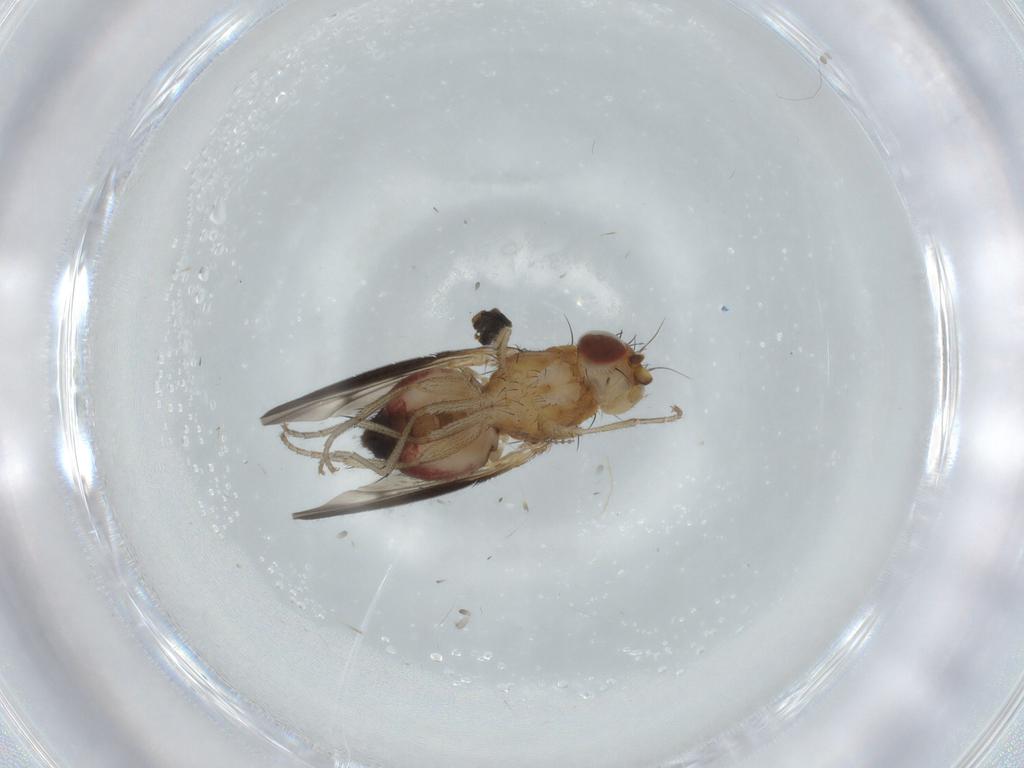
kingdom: Animalia
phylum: Arthropoda
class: Insecta
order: Diptera
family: Heleomyzidae
